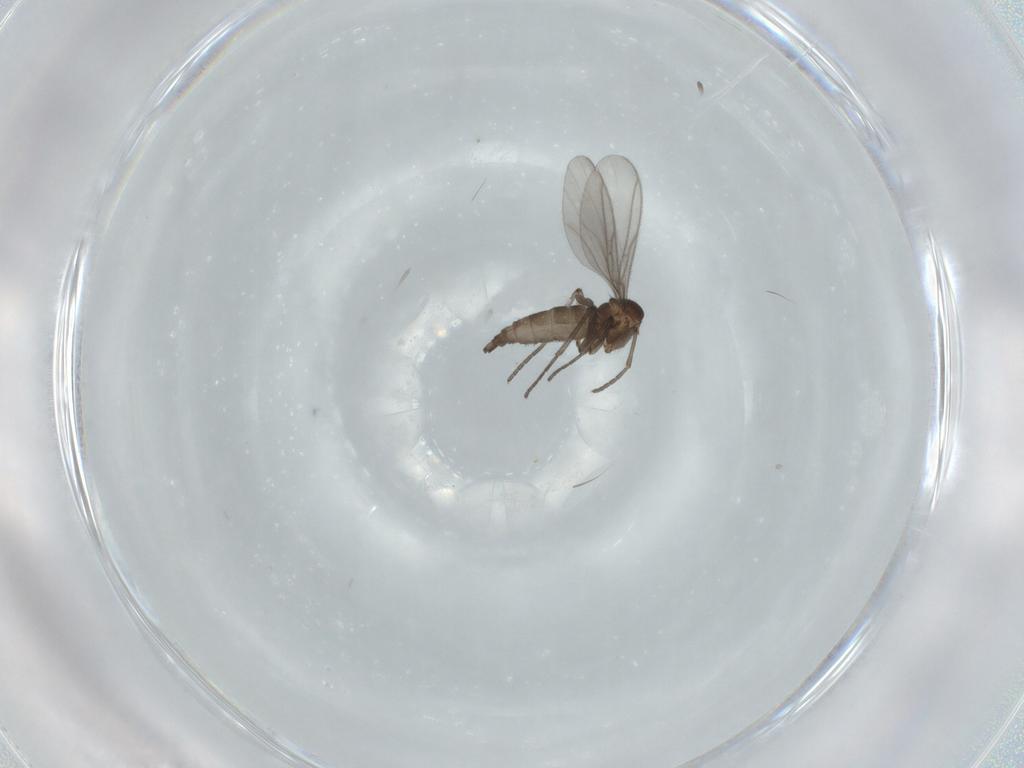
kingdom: Animalia
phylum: Arthropoda
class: Insecta
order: Diptera
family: Sciaridae
